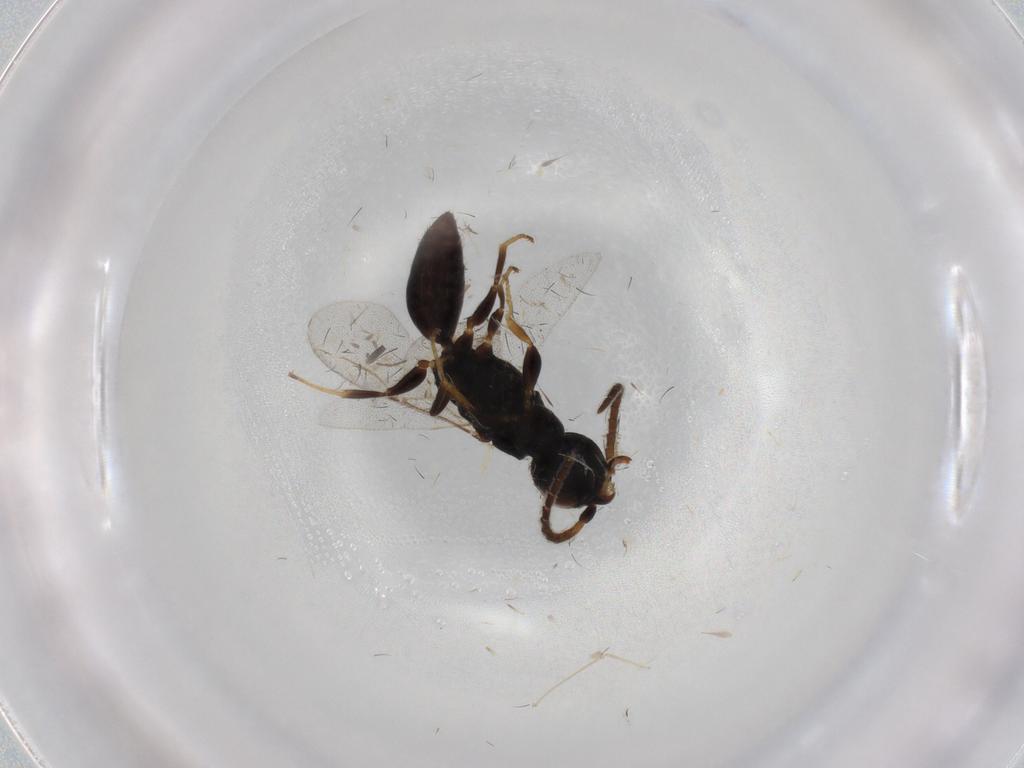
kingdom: Animalia
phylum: Arthropoda
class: Insecta
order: Hymenoptera
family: Bethylidae
